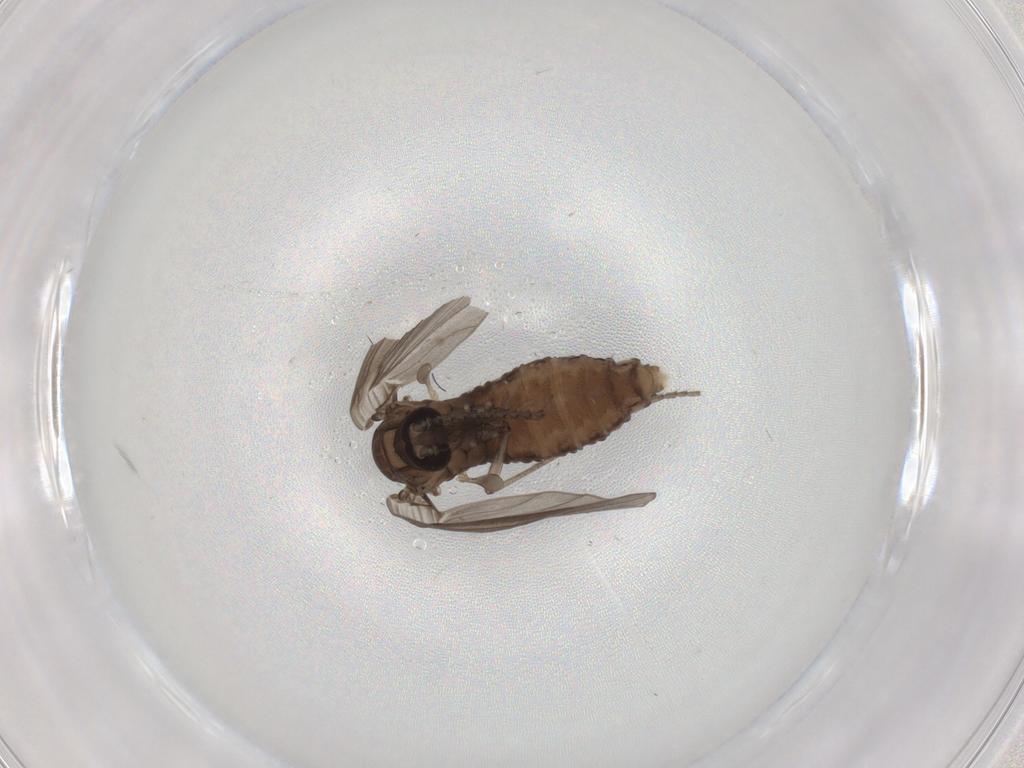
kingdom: Animalia
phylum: Arthropoda
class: Insecta
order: Diptera
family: Psychodidae
